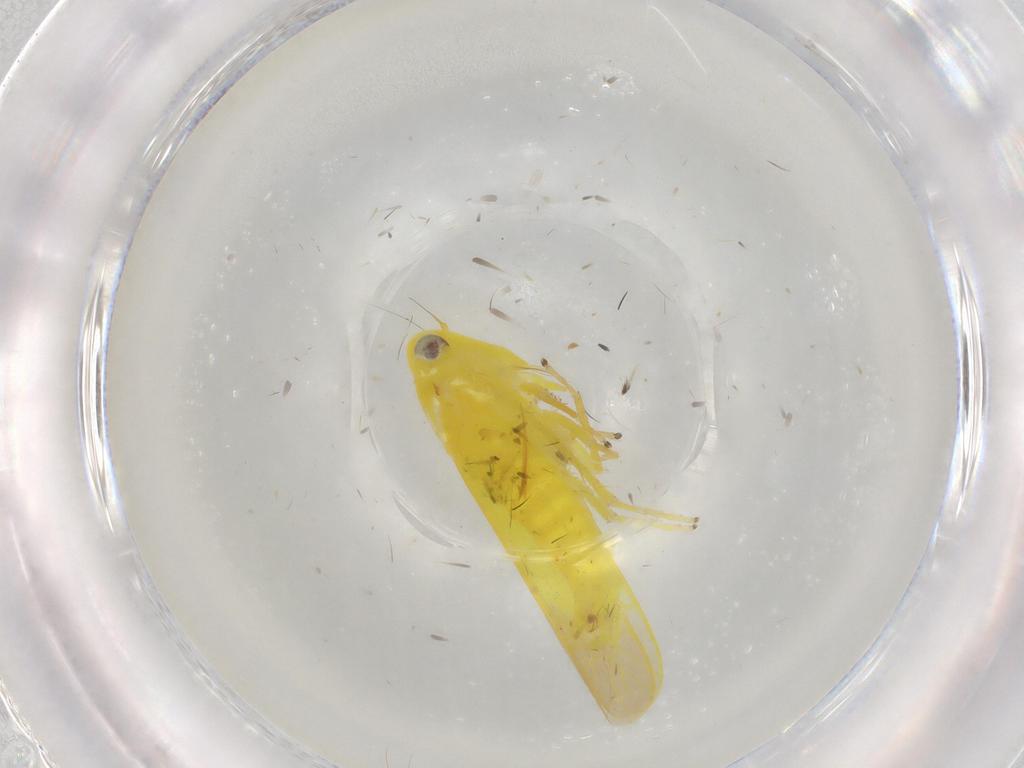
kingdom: Animalia
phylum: Arthropoda
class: Insecta
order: Hemiptera
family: Cicadellidae
